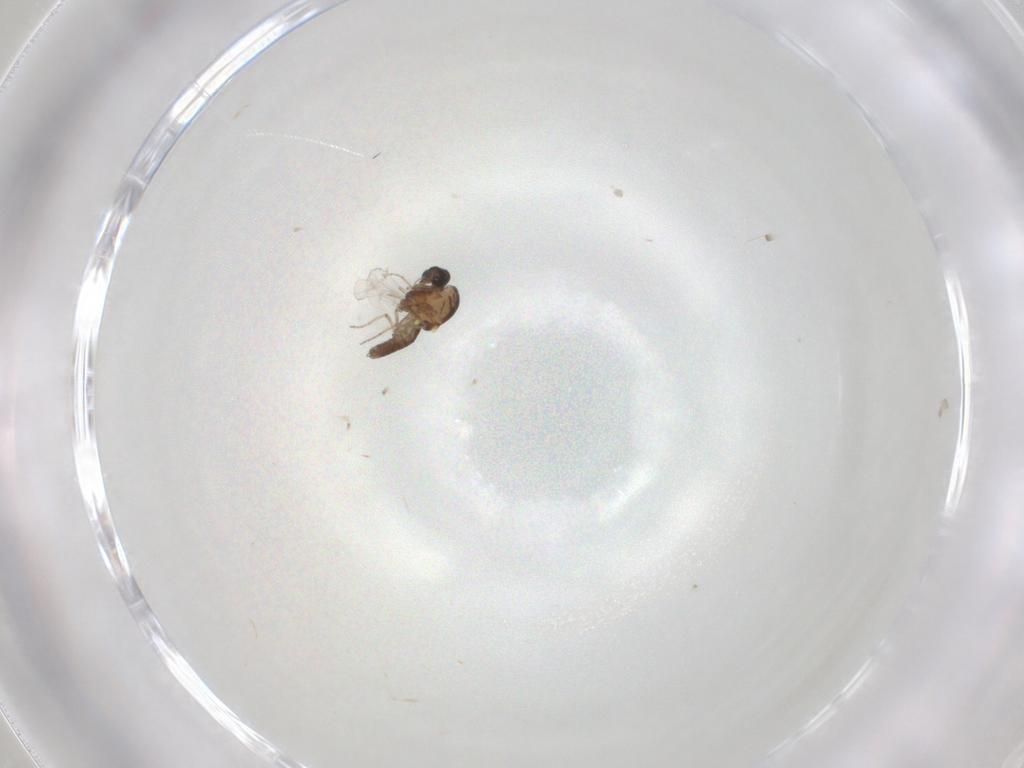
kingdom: Animalia
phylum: Arthropoda
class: Insecta
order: Diptera
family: Ceratopogonidae
